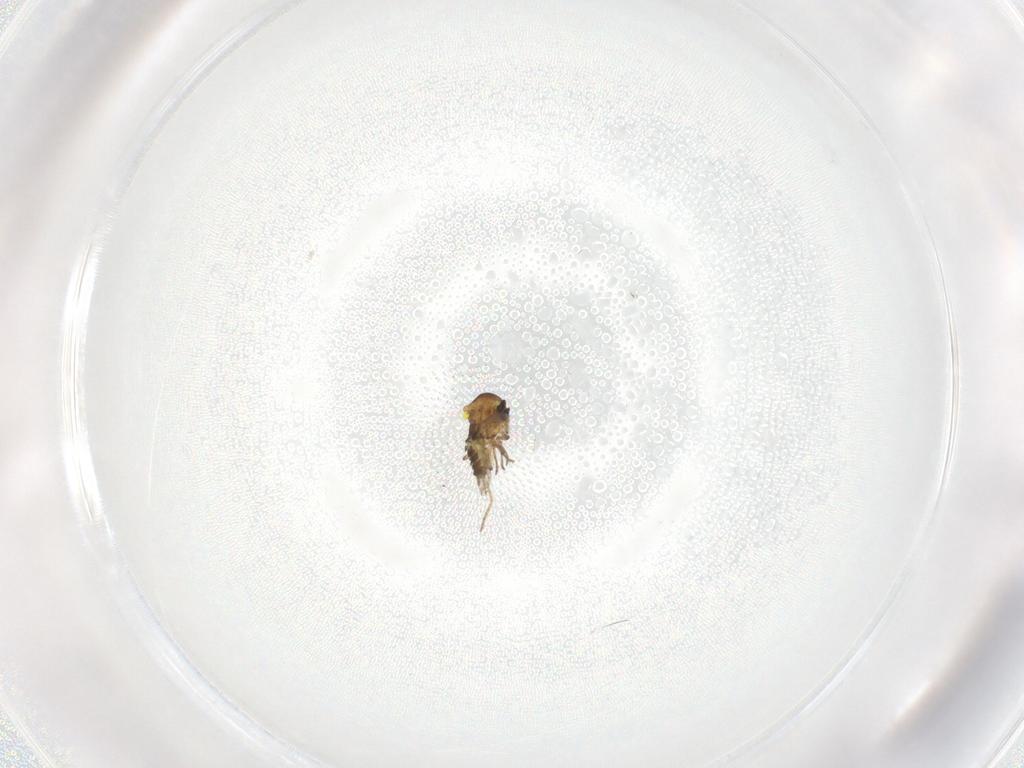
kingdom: Animalia
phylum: Arthropoda
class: Insecta
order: Diptera
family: Ceratopogonidae
